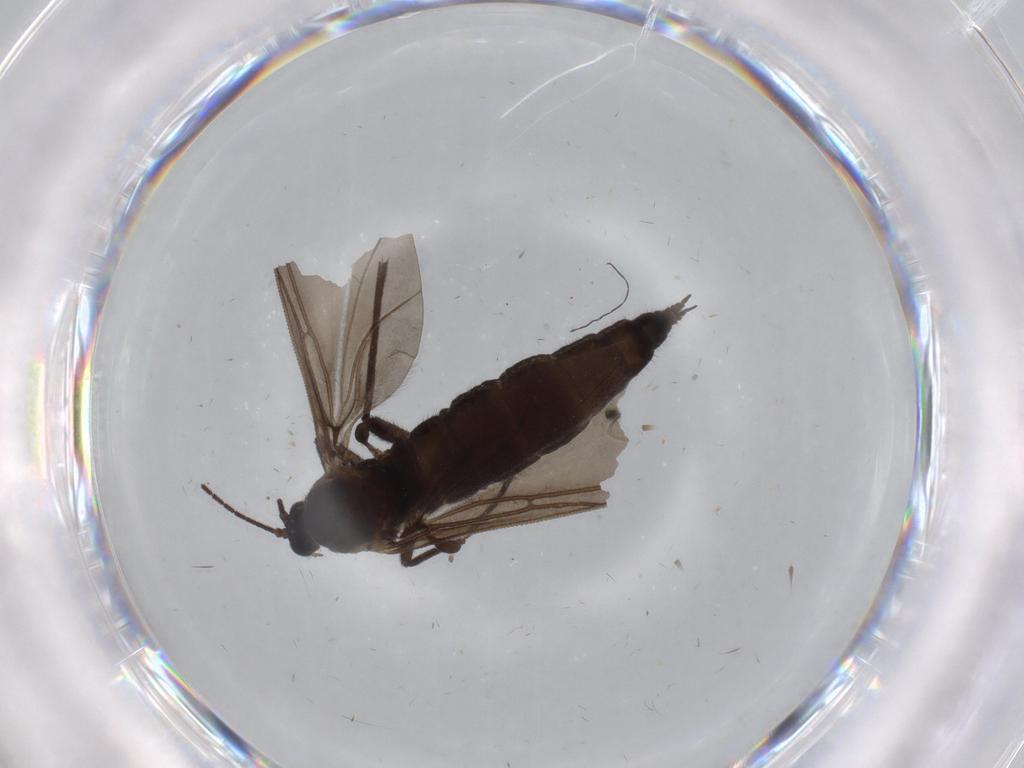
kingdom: Animalia
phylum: Arthropoda
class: Insecta
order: Diptera
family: Sciaridae
